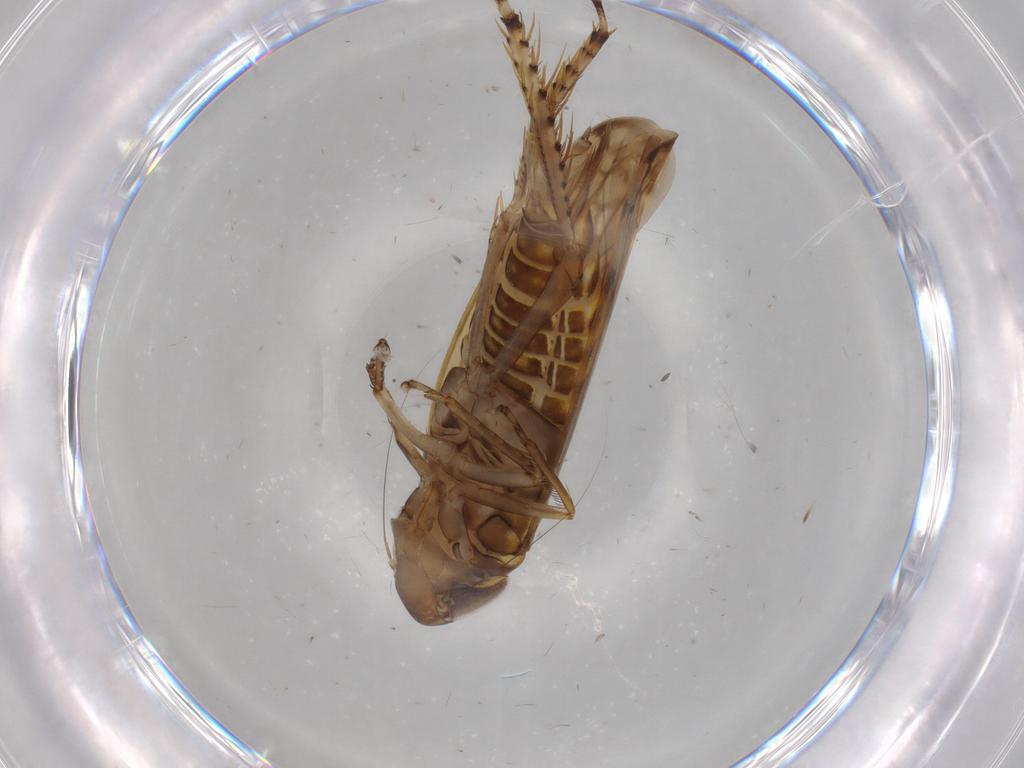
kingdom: Animalia
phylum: Arthropoda
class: Insecta
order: Hemiptera
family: Cicadellidae
